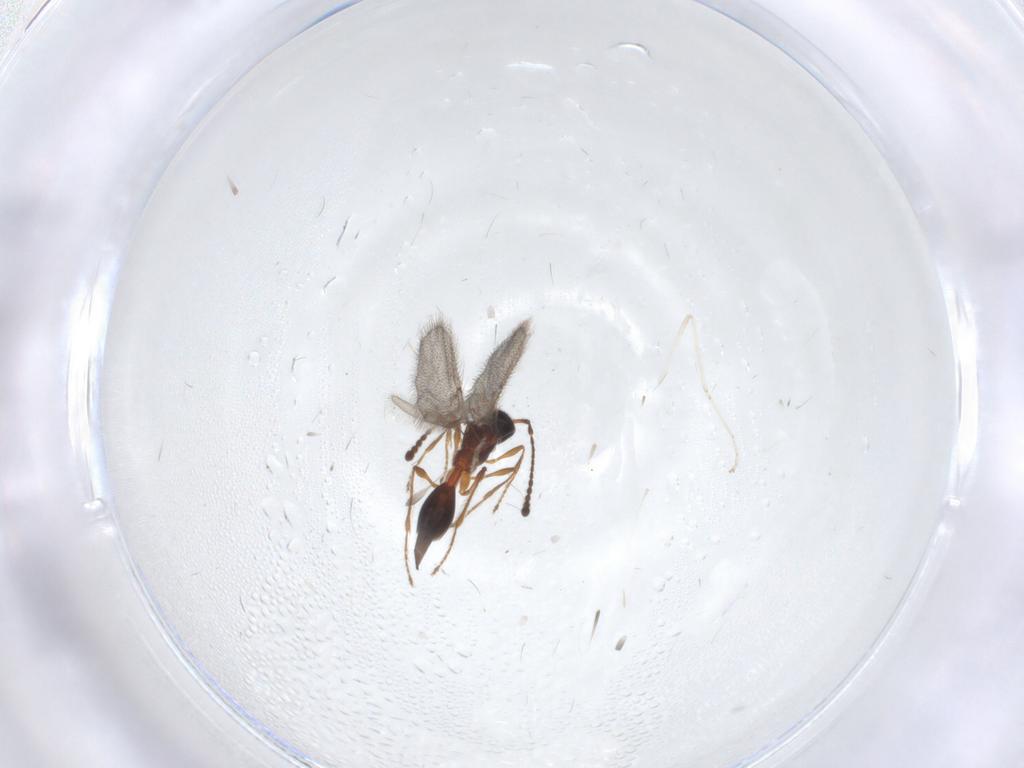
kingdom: Animalia
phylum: Arthropoda
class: Insecta
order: Hymenoptera
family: Diapriidae
